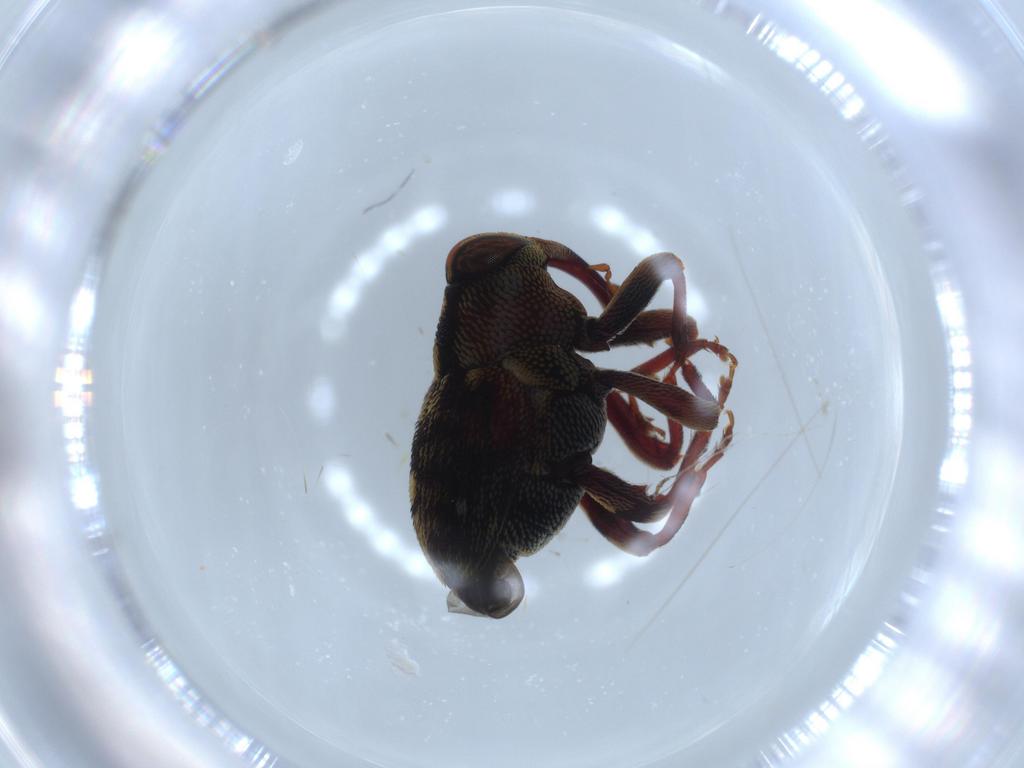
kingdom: Animalia
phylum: Arthropoda
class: Insecta
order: Coleoptera
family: Curculionidae
